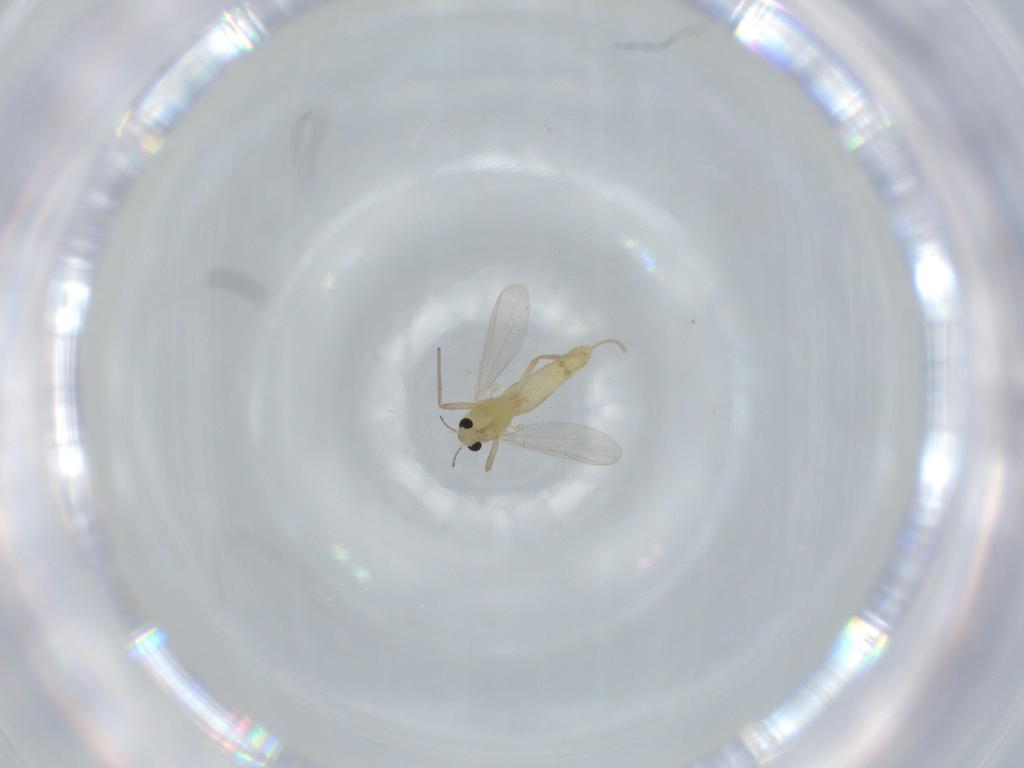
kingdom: Animalia
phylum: Arthropoda
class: Insecta
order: Diptera
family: Chironomidae
